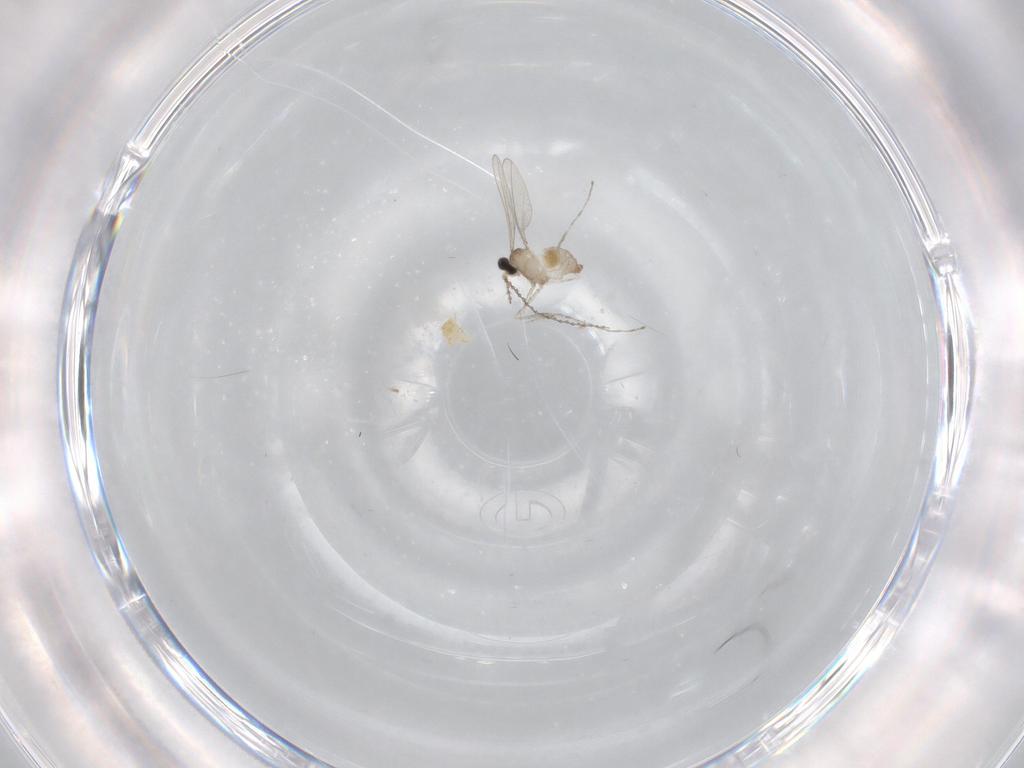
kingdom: Animalia
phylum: Arthropoda
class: Insecta
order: Diptera
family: Cecidomyiidae
